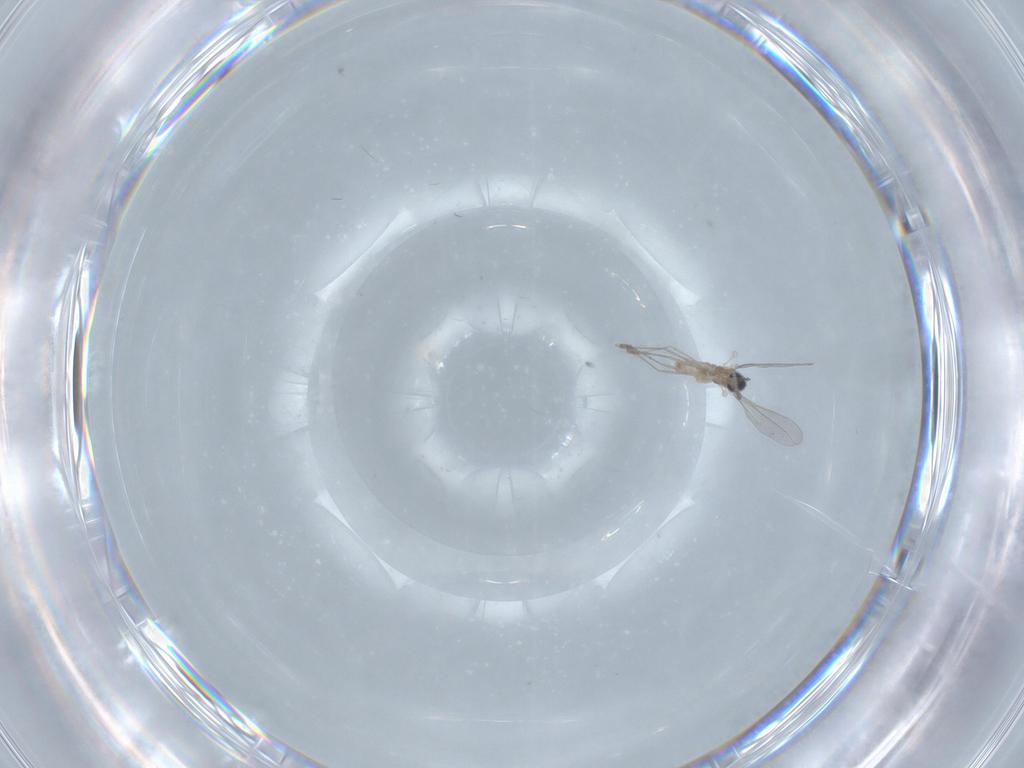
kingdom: Animalia
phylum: Arthropoda
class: Insecta
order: Diptera
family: Cecidomyiidae
